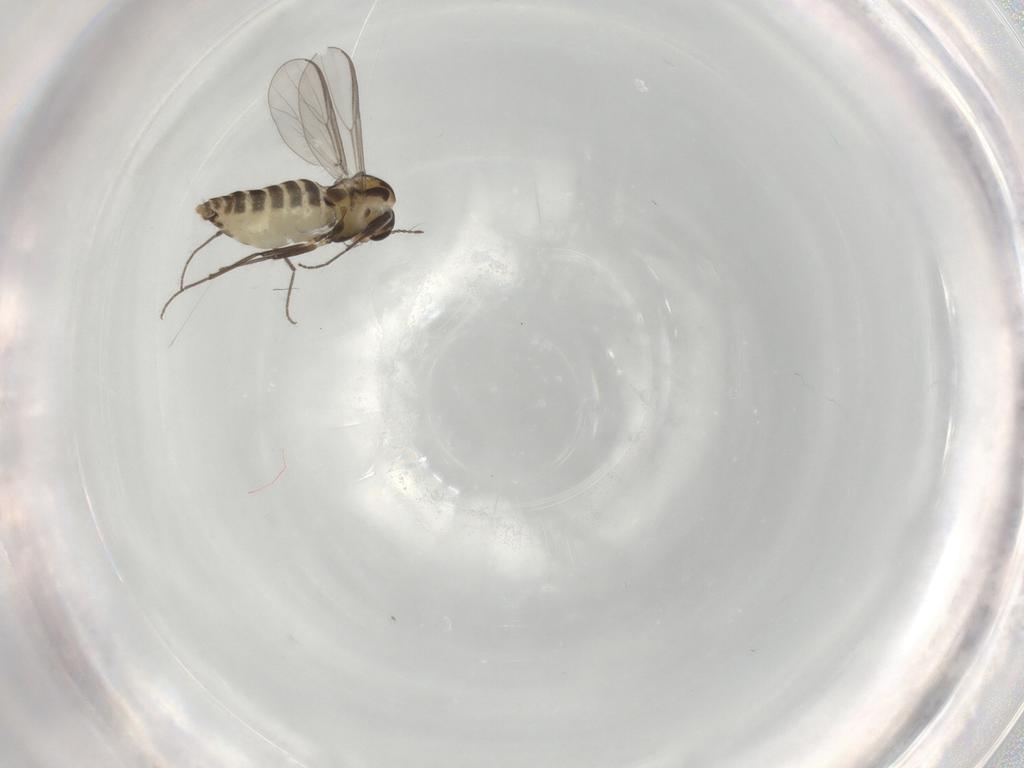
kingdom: Animalia
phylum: Arthropoda
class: Insecta
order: Diptera
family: Chironomidae
